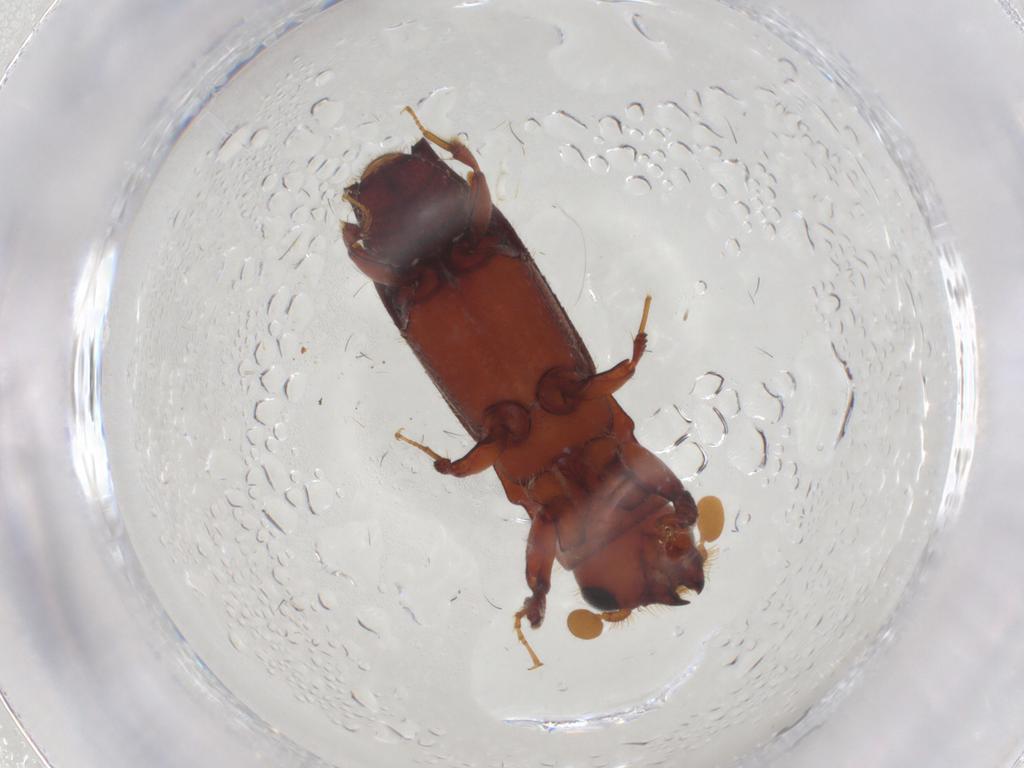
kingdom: Animalia
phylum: Arthropoda
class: Insecta
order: Coleoptera
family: Curculionidae
